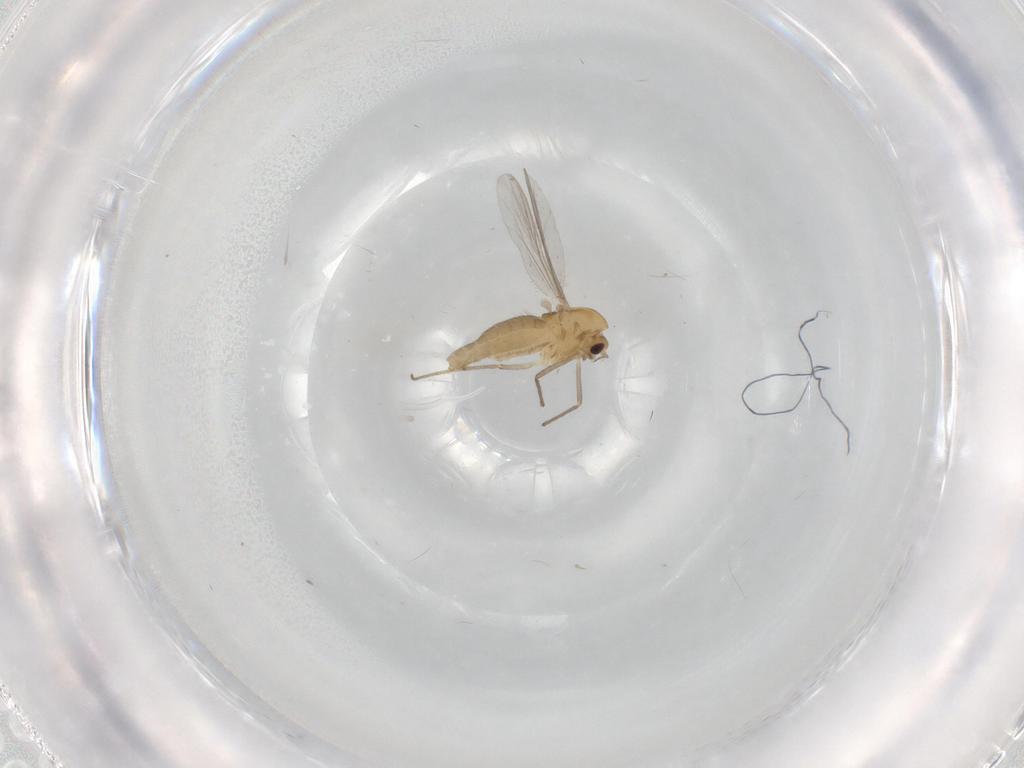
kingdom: Animalia
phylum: Arthropoda
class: Insecta
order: Diptera
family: Chironomidae
